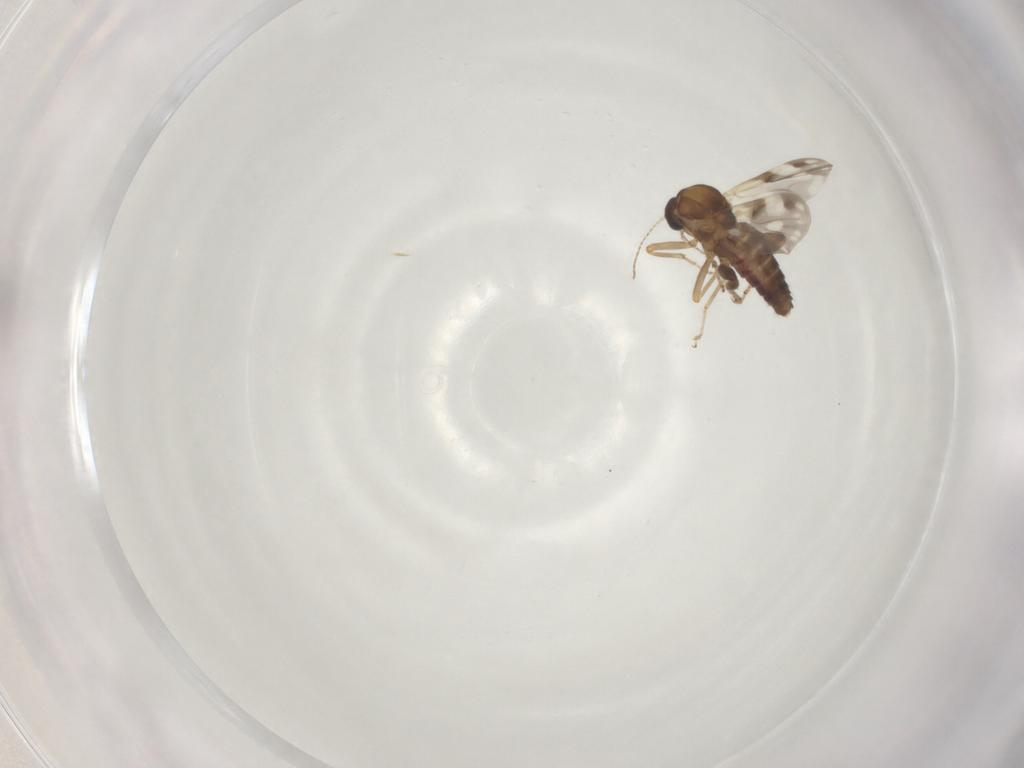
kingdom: Animalia
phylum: Arthropoda
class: Insecta
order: Diptera
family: Ceratopogonidae
